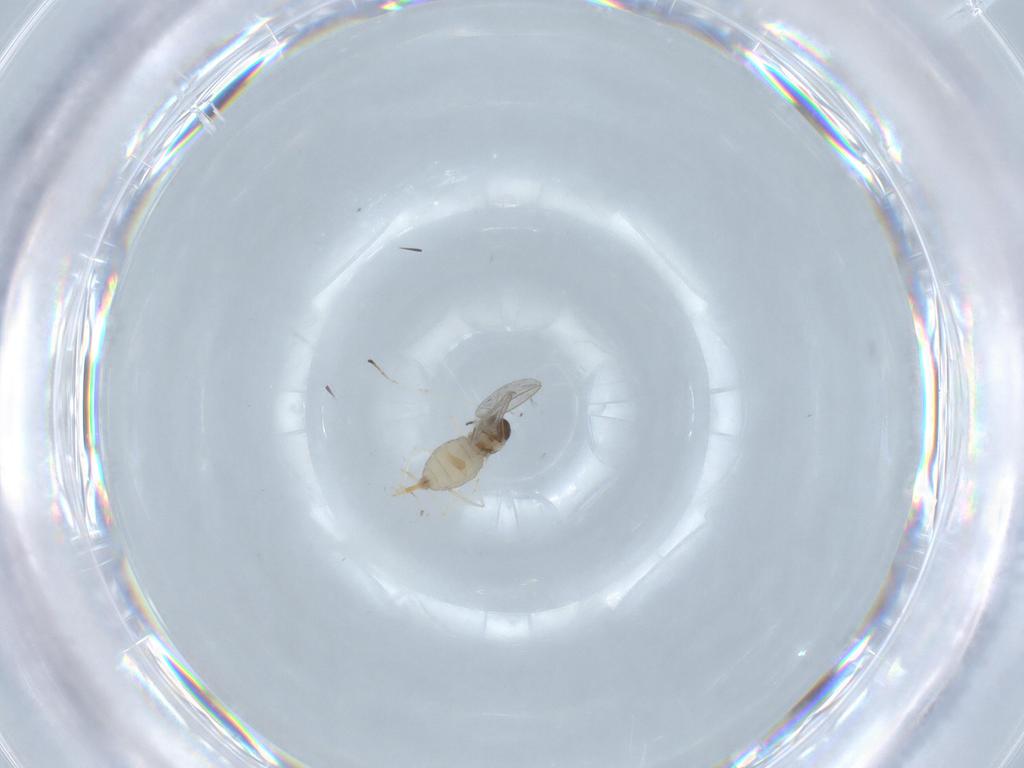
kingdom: Animalia
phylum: Arthropoda
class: Insecta
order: Diptera
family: Cecidomyiidae
